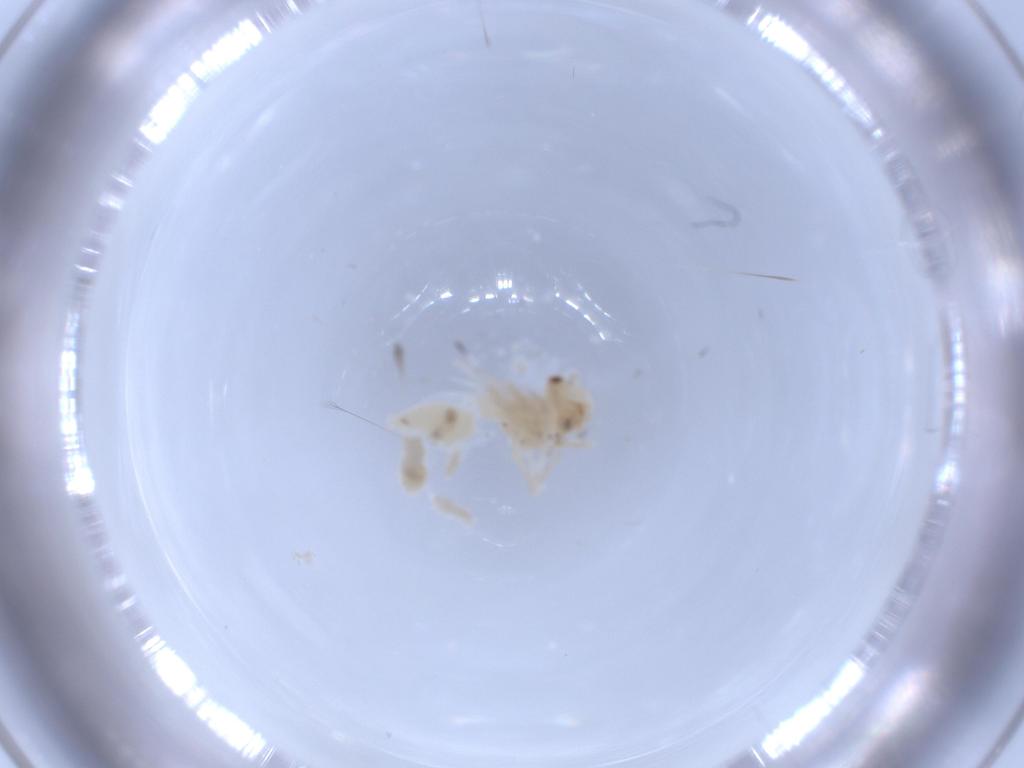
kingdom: Animalia
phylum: Arthropoda
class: Insecta
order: Psocodea
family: Caeciliusidae
